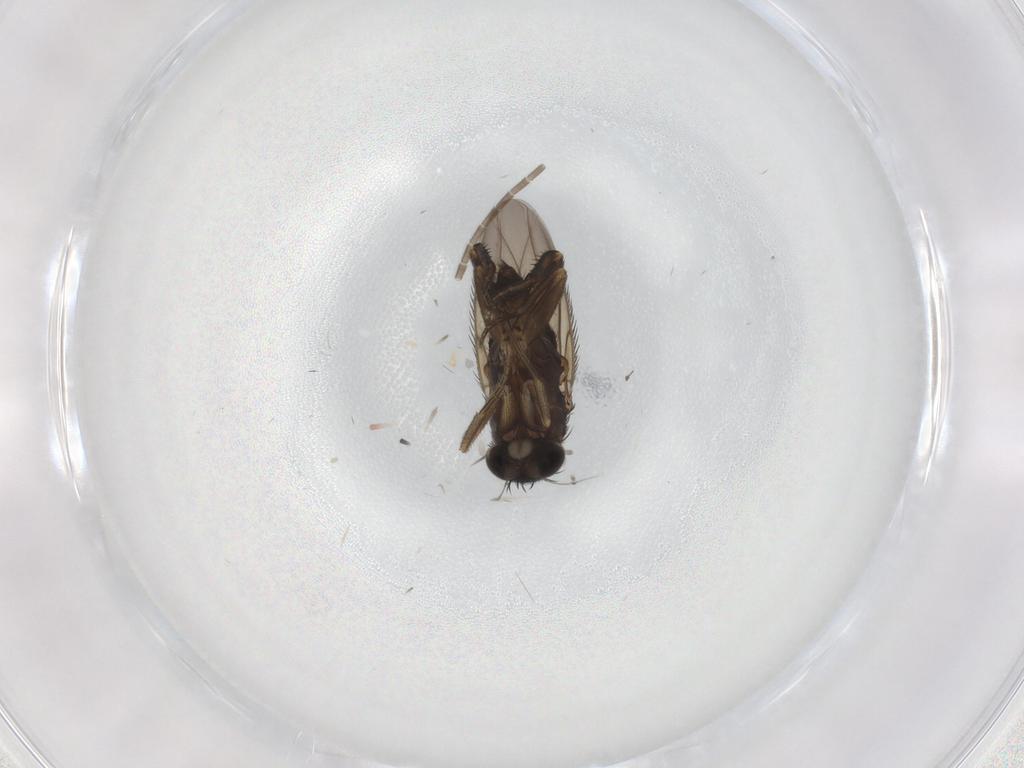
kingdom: Animalia
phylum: Arthropoda
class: Insecta
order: Diptera
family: Phoridae
